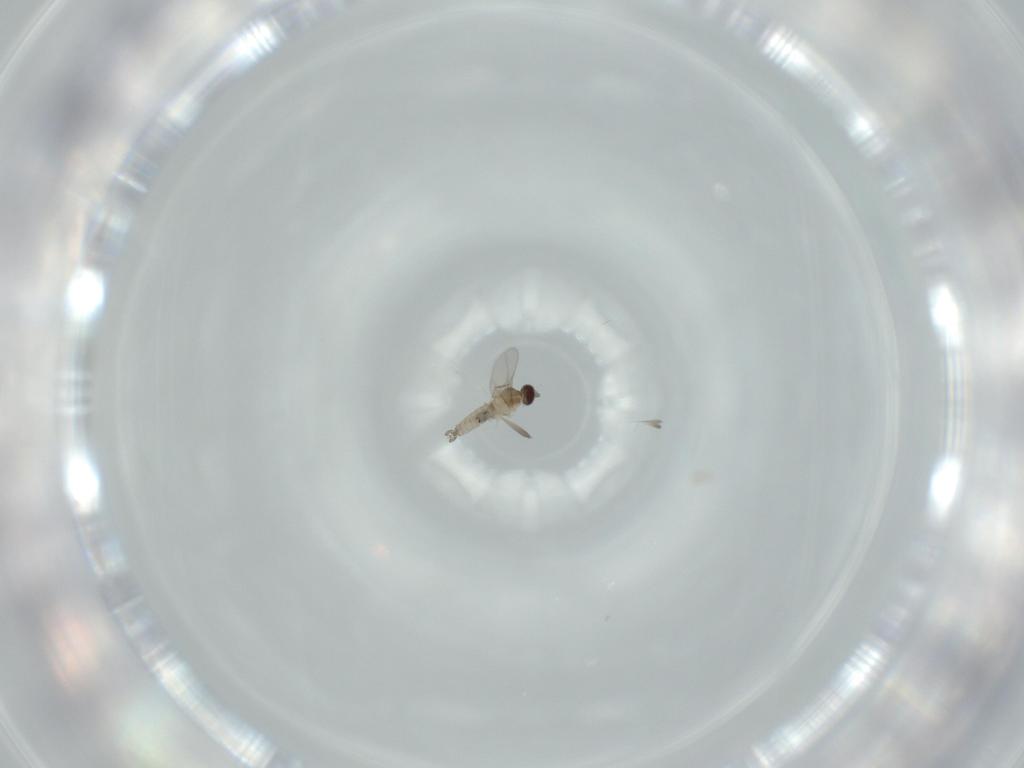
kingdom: Animalia
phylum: Arthropoda
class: Insecta
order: Diptera
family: Cecidomyiidae
